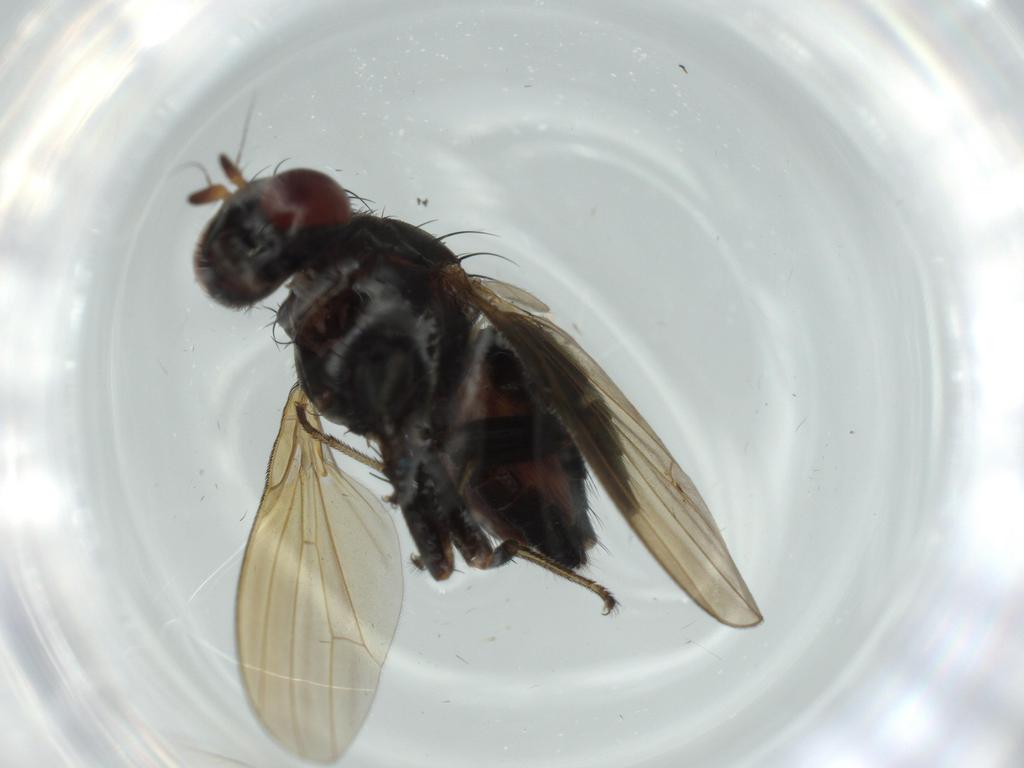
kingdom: Animalia
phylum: Arthropoda
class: Insecta
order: Diptera
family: Lauxaniidae
